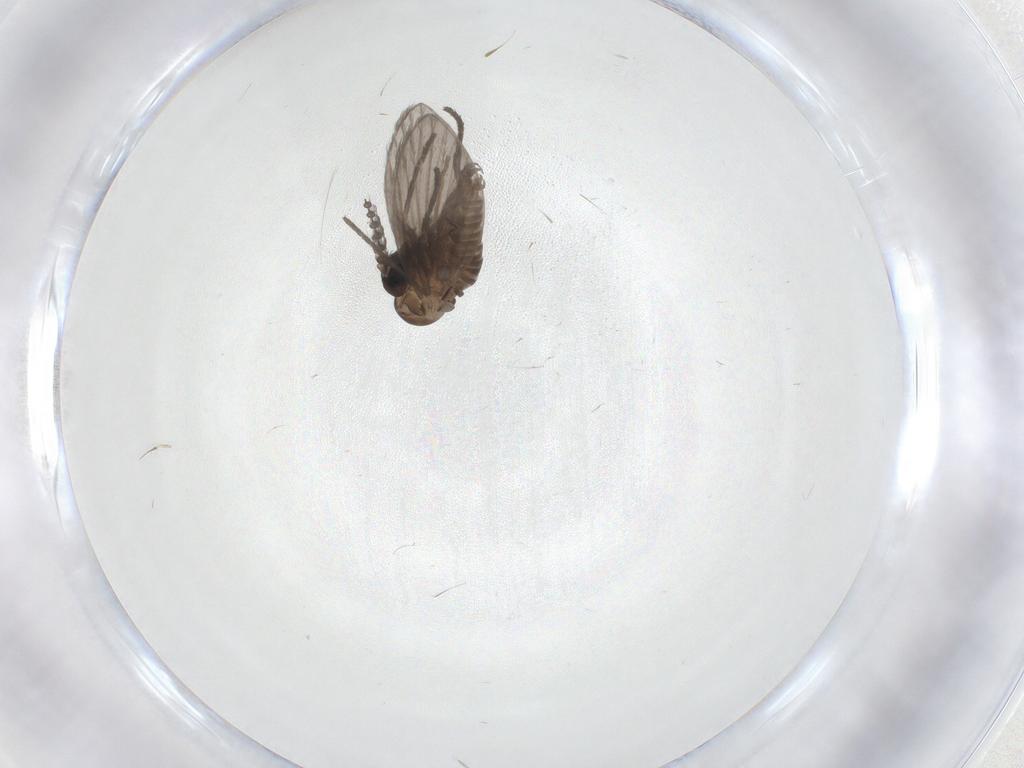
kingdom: Animalia
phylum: Arthropoda
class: Insecta
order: Diptera
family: Psychodidae
